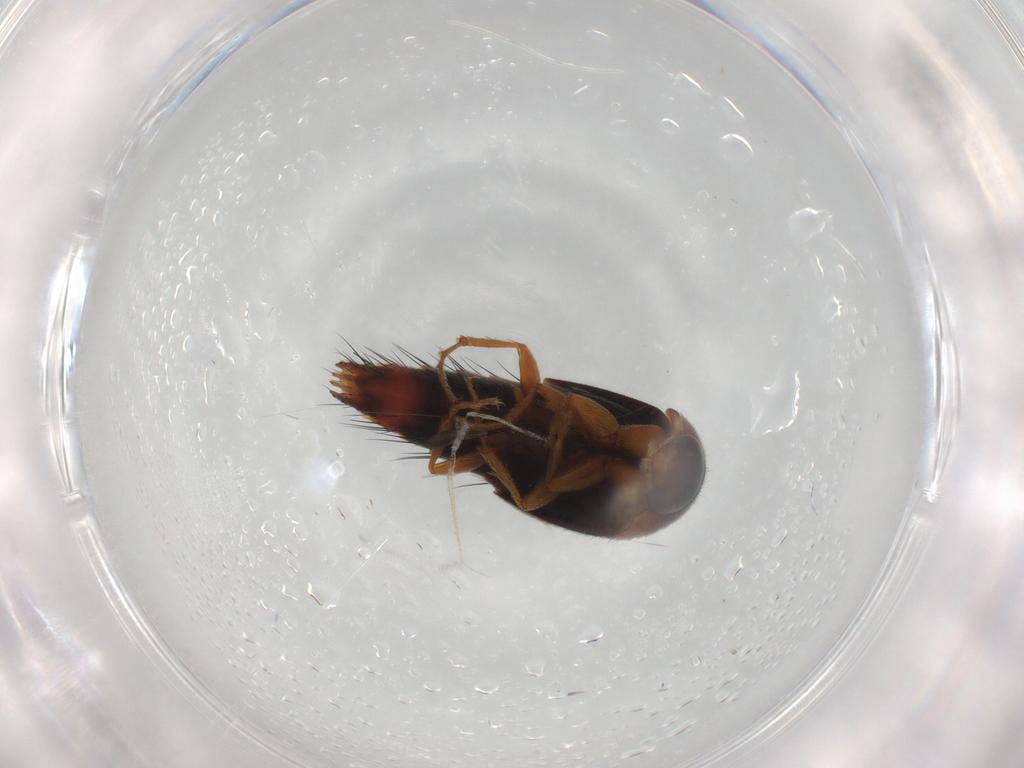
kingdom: Animalia
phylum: Arthropoda
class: Insecta
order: Coleoptera
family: Staphylinidae
